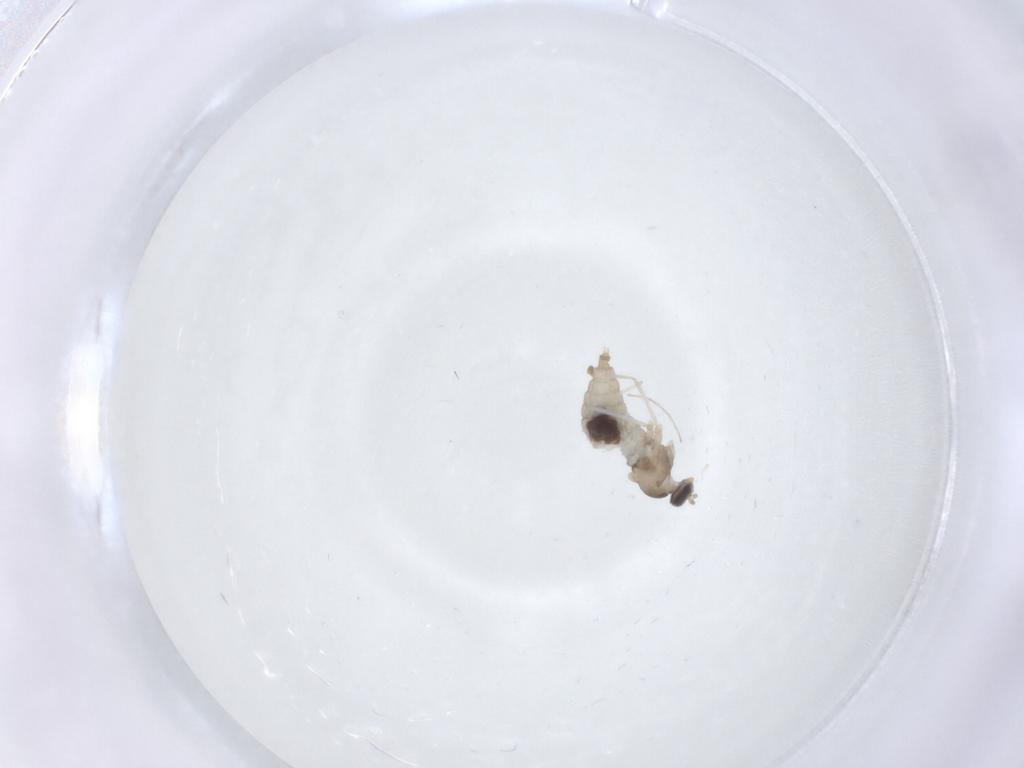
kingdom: Animalia
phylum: Arthropoda
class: Insecta
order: Diptera
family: Cecidomyiidae
